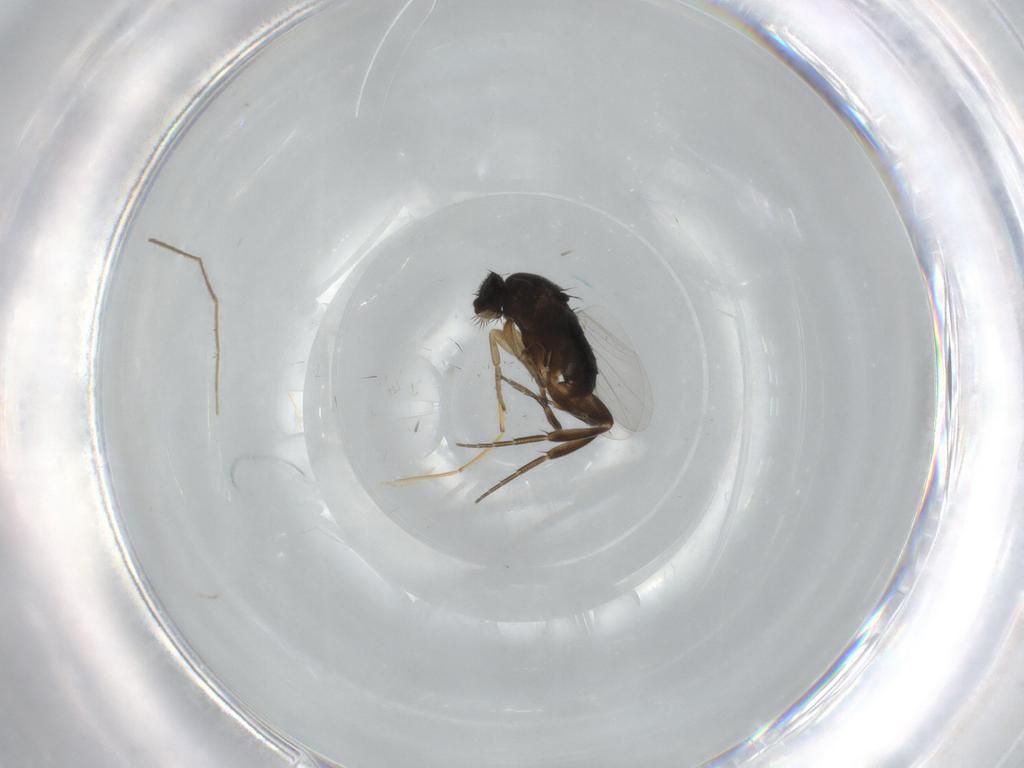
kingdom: Animalia
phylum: Arthropoda
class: Insecta
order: Diptera
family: Phoridae
